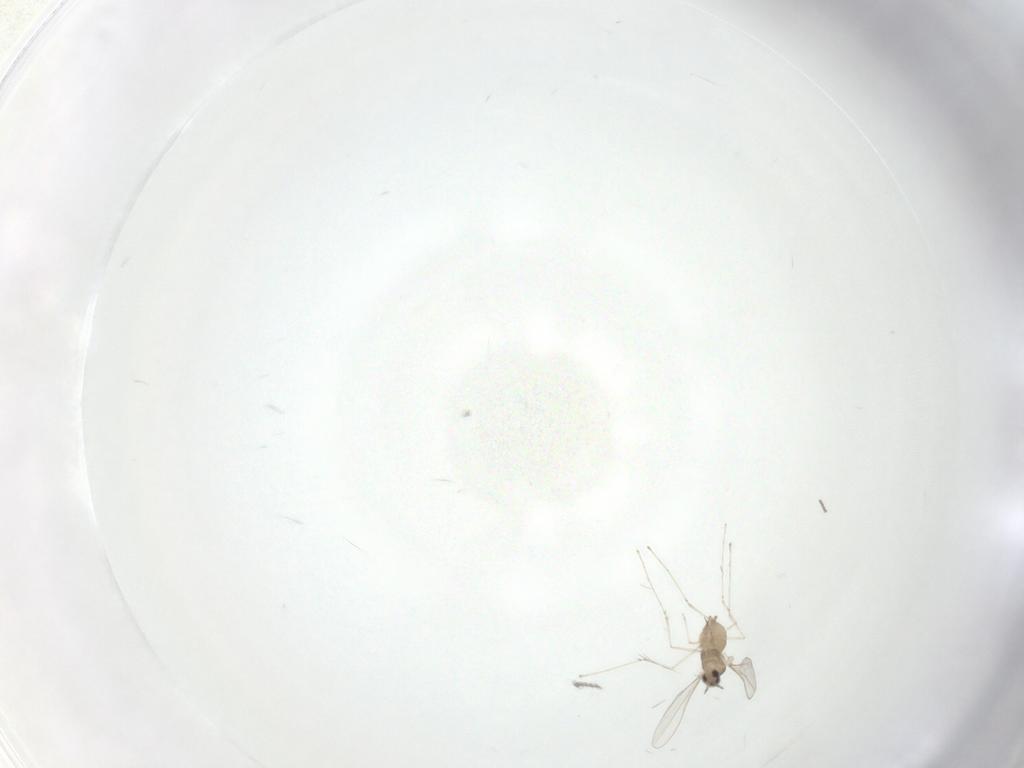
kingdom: Animalia
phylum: Arthropoda
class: Insecta
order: Diptera
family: Cecidomyiidae
